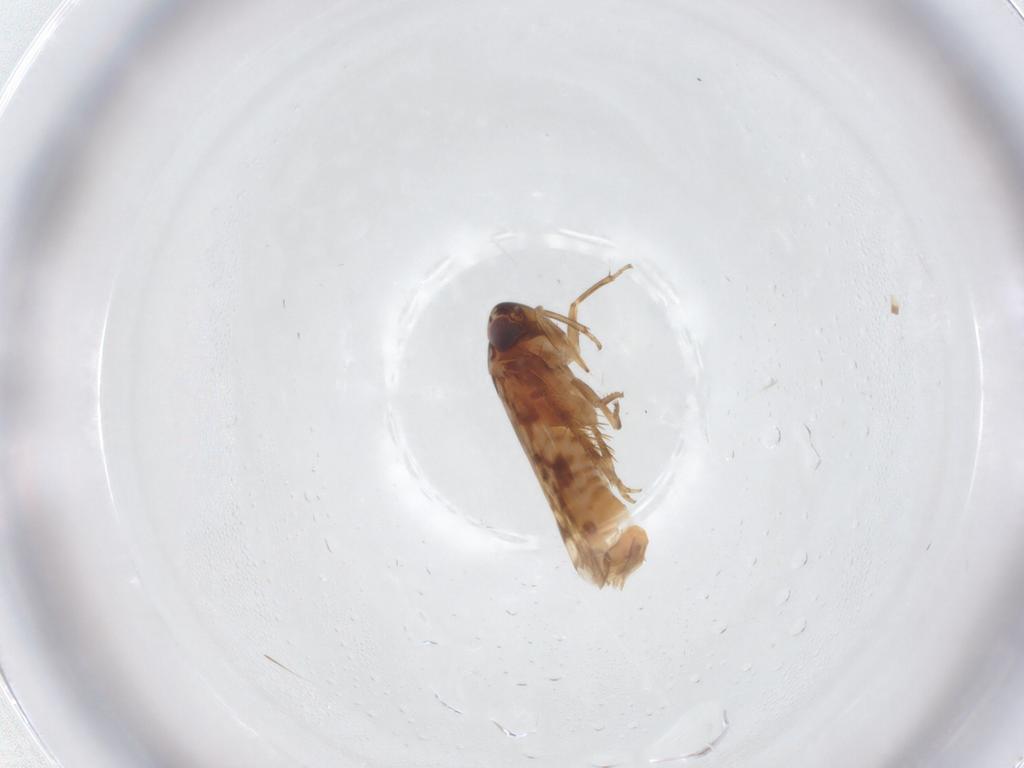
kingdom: Animalia
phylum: Arthropoda
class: Insecta
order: Hemiptera
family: Cicadellidae
